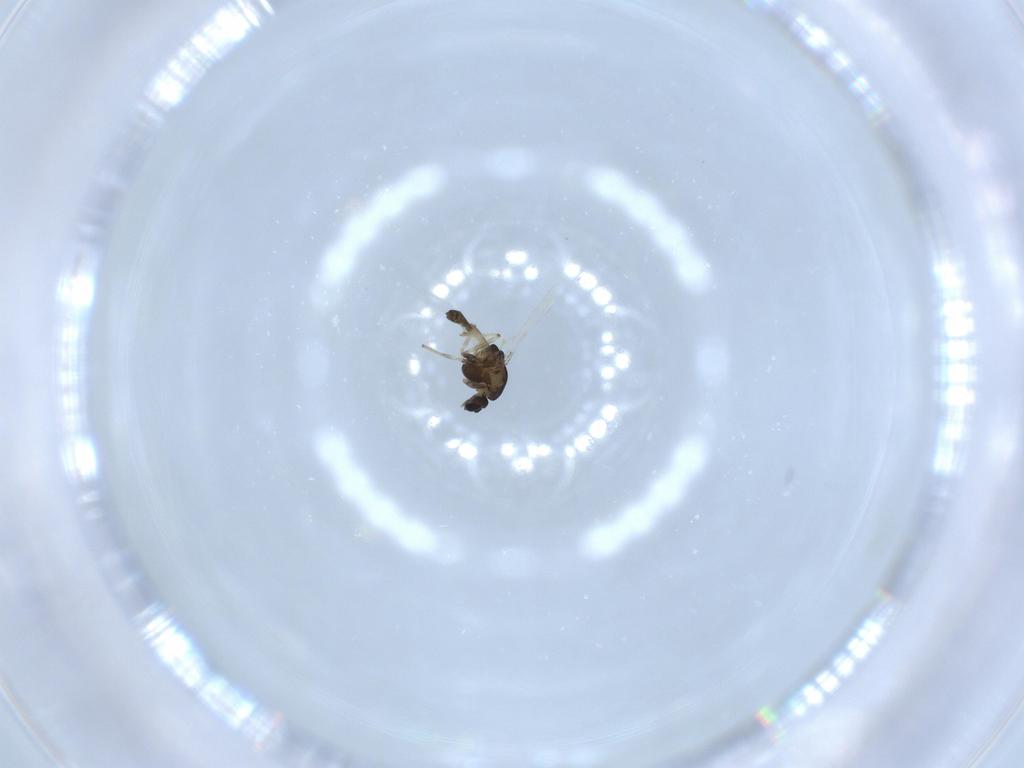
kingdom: Animalia
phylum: Arthropoda
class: Insecta
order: Diptera
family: Chironomidae
